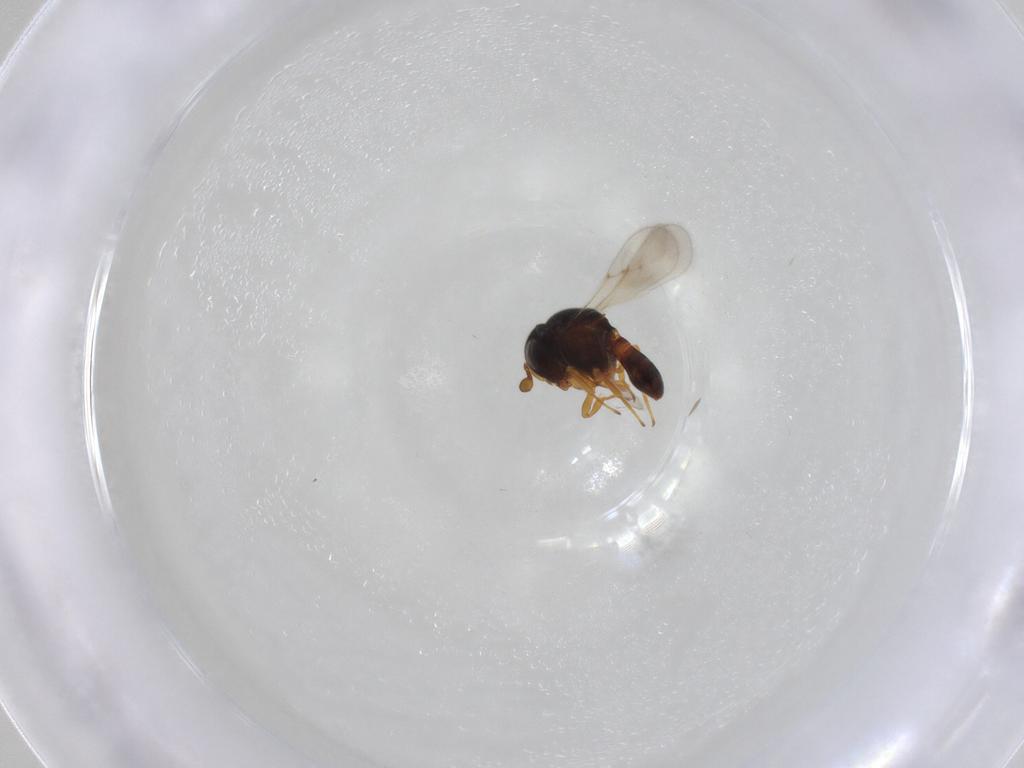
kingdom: Animalia
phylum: Arthropoda
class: Insecta
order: Hymenoptera
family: Scelionidae
